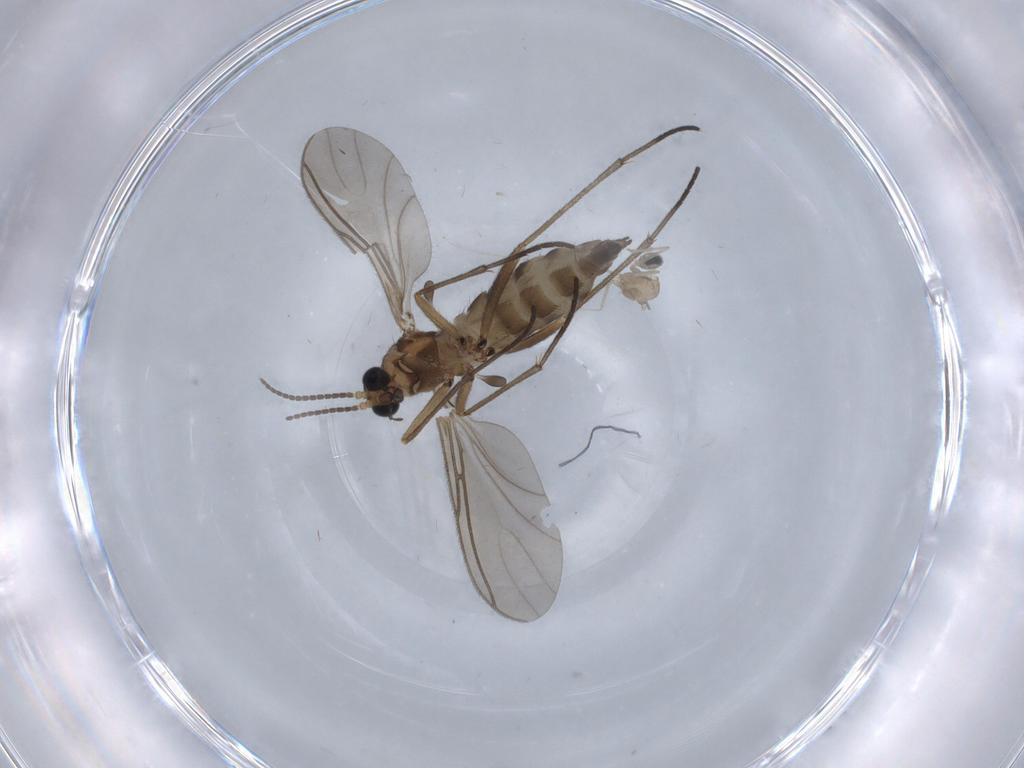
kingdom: Animalia
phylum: Arthropoda
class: Insecta
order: Diptera
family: Sciaridae
